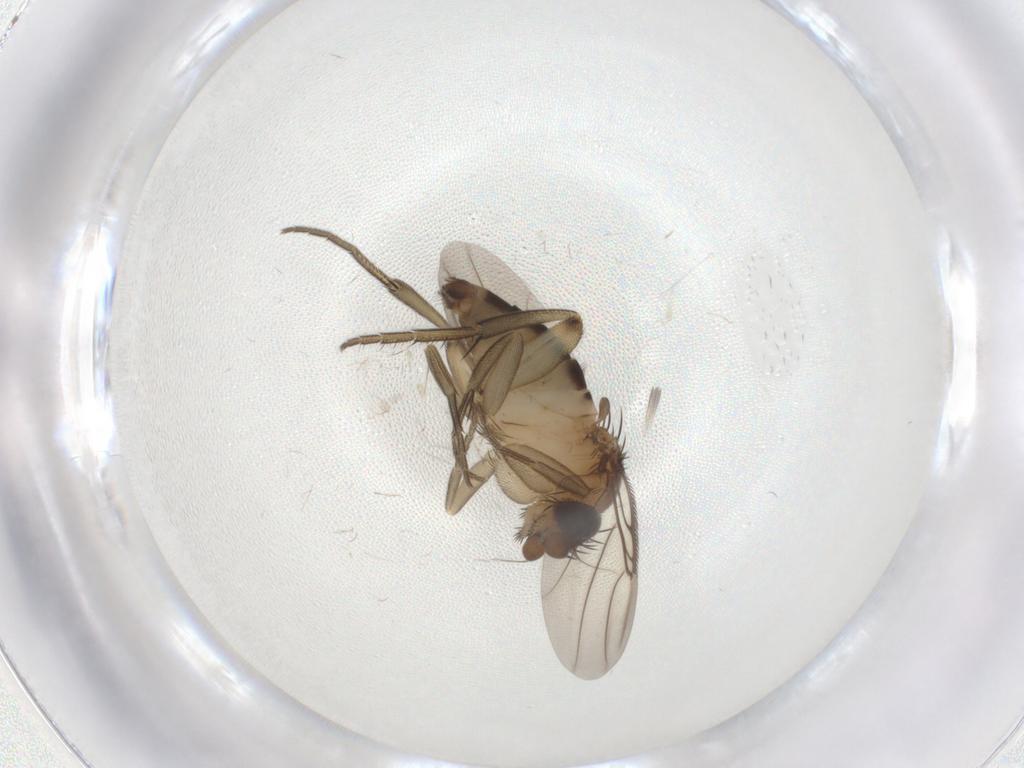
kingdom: Animalia
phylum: Arthropoda
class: Insecta
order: Diptera
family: Phoridae
